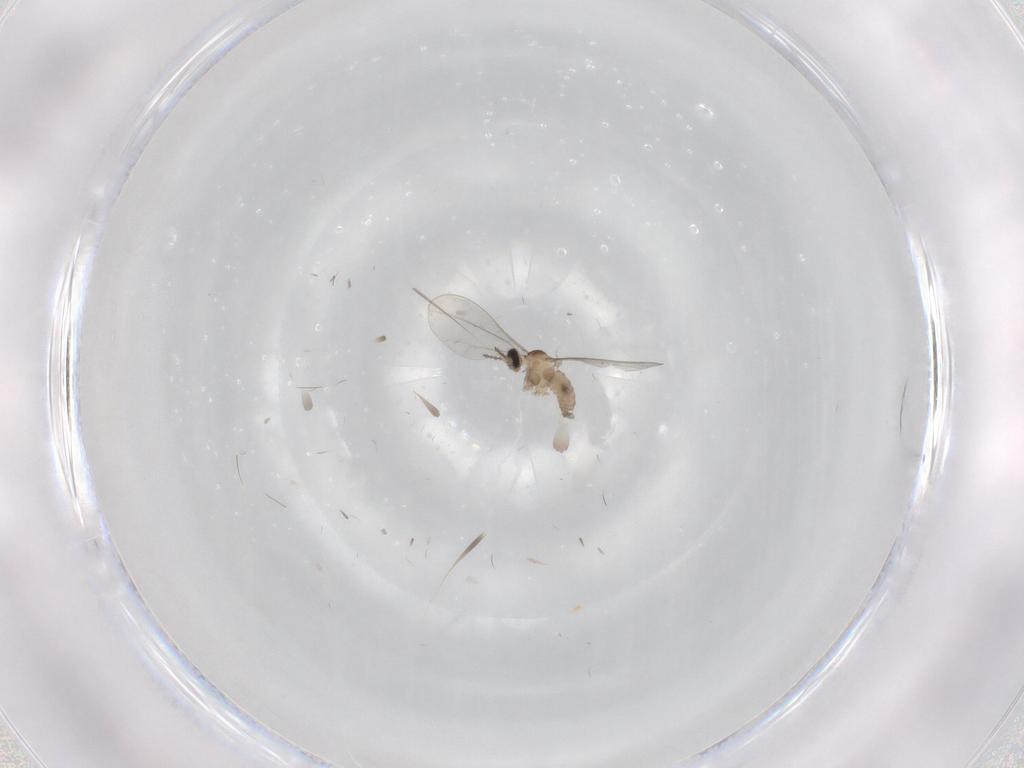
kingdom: Animalia
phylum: Arthropoda
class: Insecta
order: Diptera
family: Cecidomyiidae
